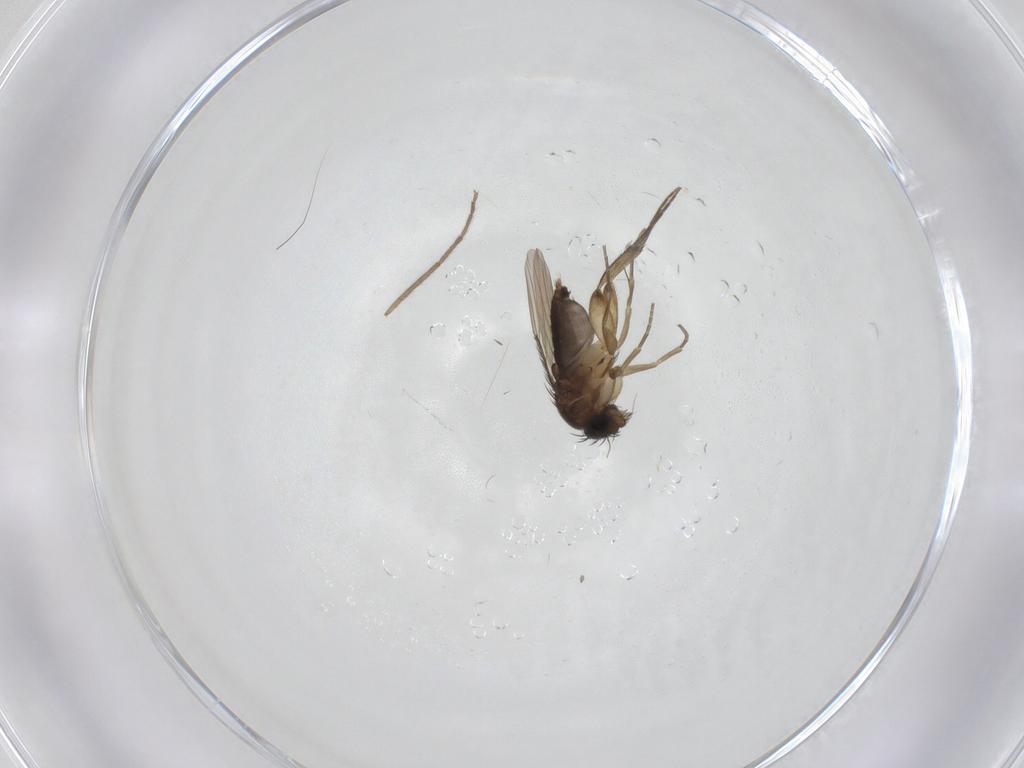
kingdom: Animalia
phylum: Arthropoda
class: Insecta
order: Diptera
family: Phoridae
